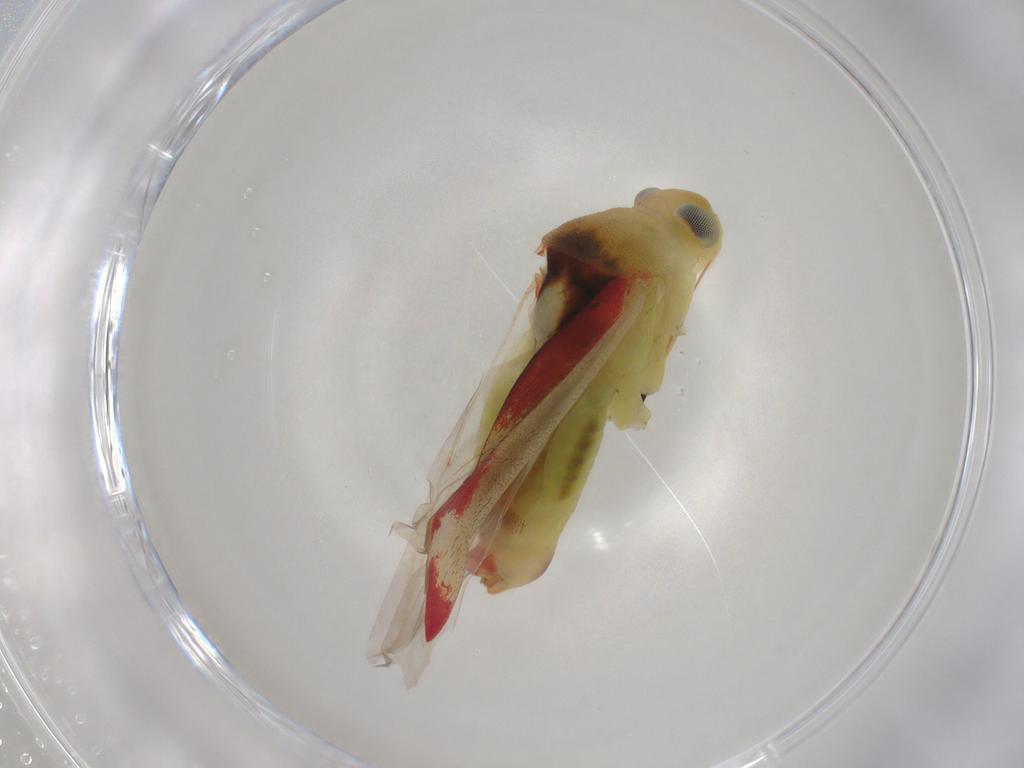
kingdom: Animalia
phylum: Arthropoda
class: Insecta
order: Hemiptera
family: Miridae
